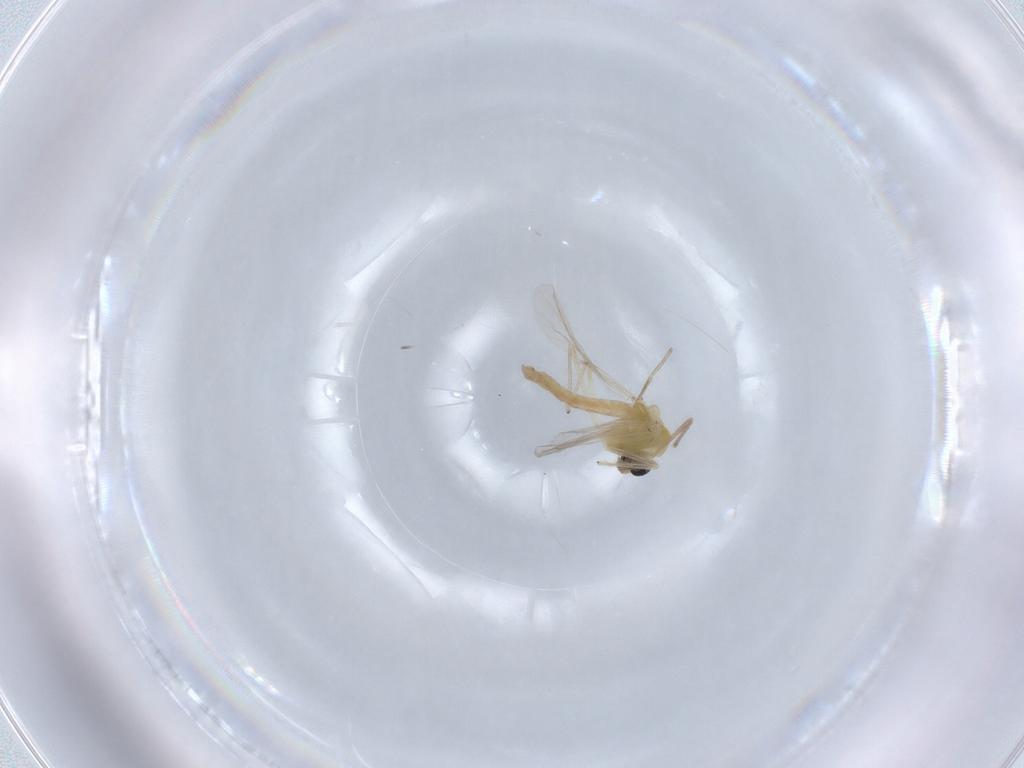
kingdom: Animalia
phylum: Arthropoda
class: Insecta
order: Diptera
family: Chironomidae
